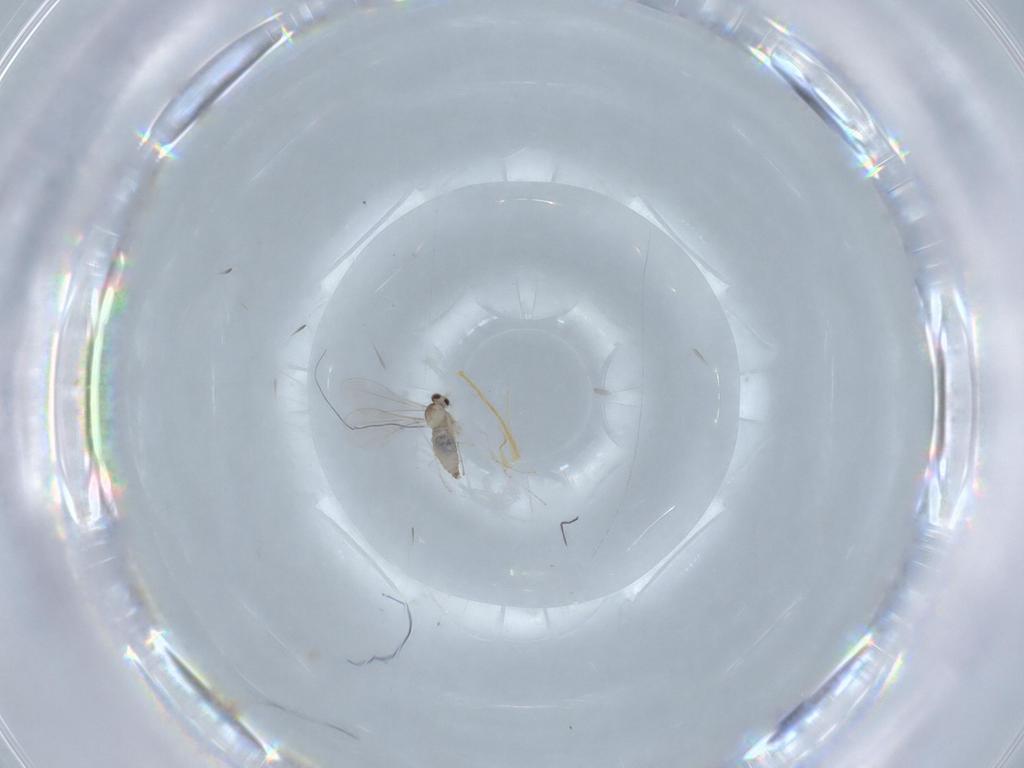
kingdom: Animalia
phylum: Arthropoda
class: Insecta
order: Diptera
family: Cecidomyiidae
